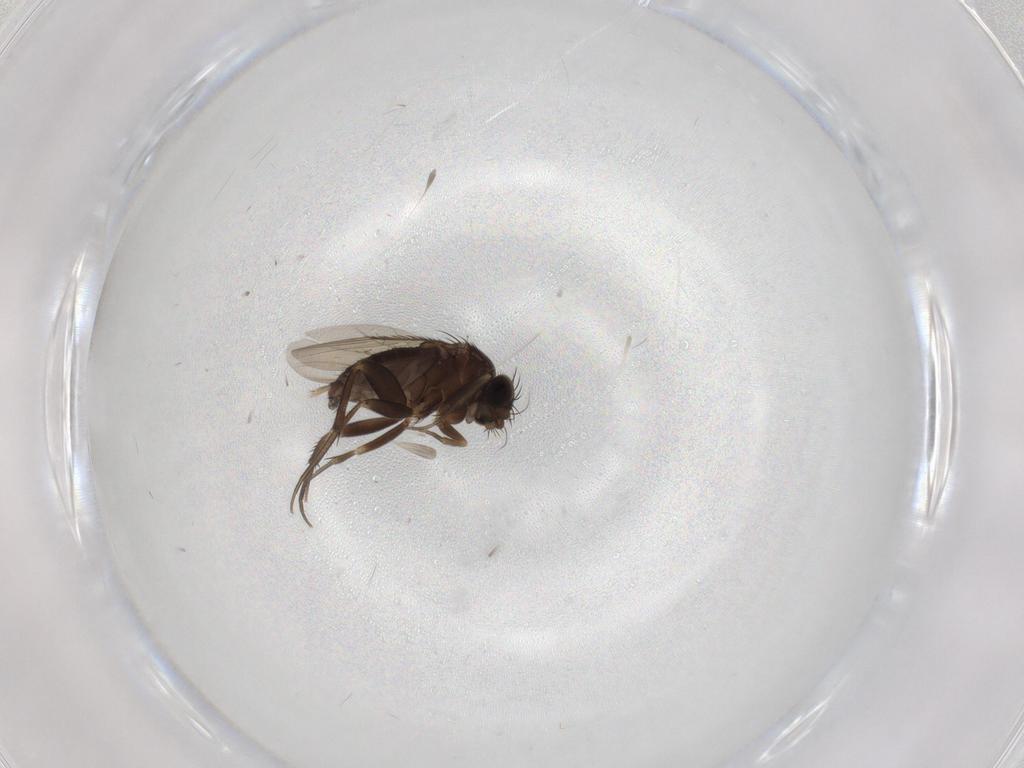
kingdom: Animalia
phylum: Arthropoda
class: Insecta
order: Diptera
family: Phoridae
